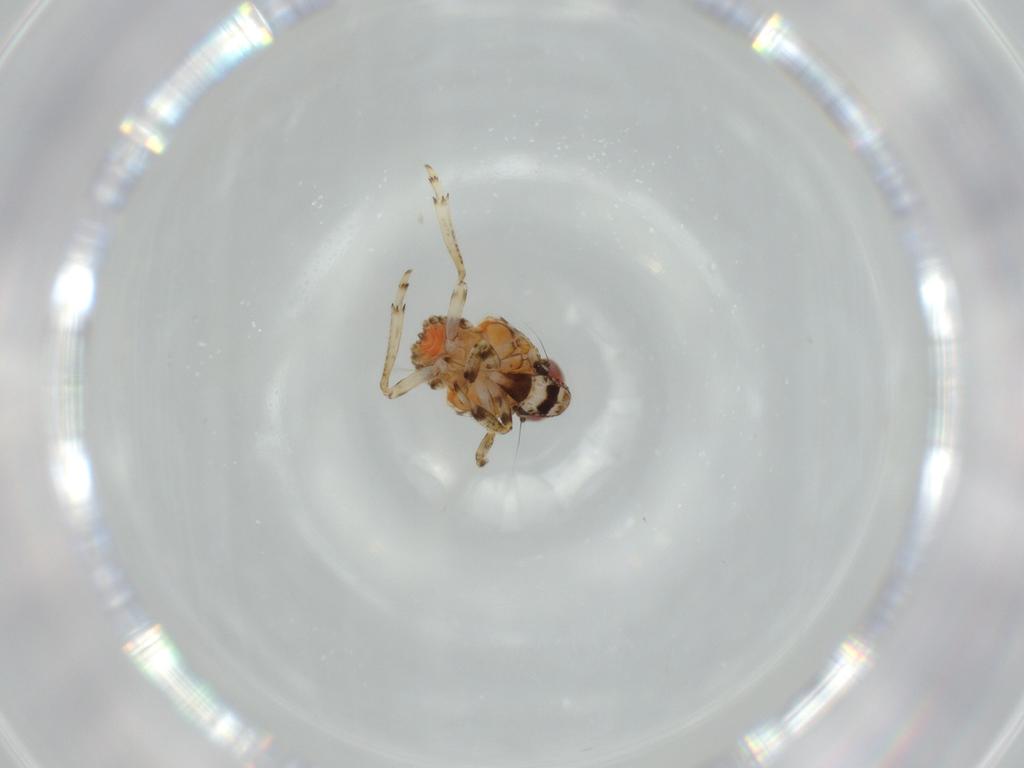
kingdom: Animalia
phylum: Arthropoda
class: Insecta
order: Hemiptera
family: Issidae
